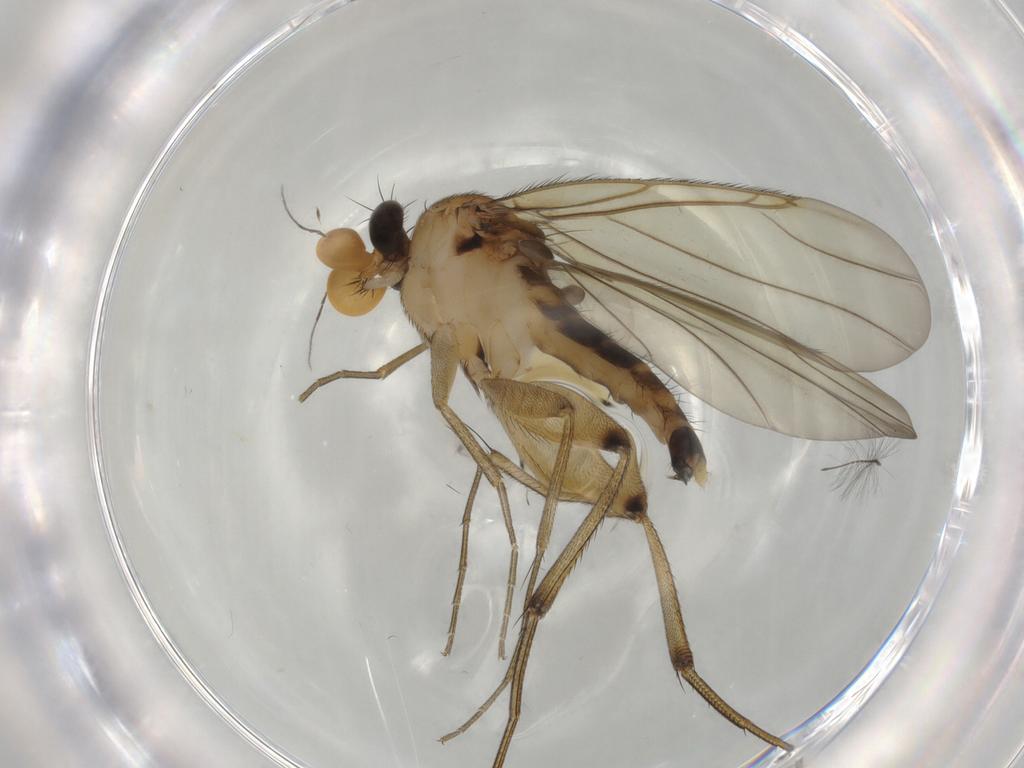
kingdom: Animalia
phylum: Arthropoda
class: Insecta
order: Diptera
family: Phoridae
